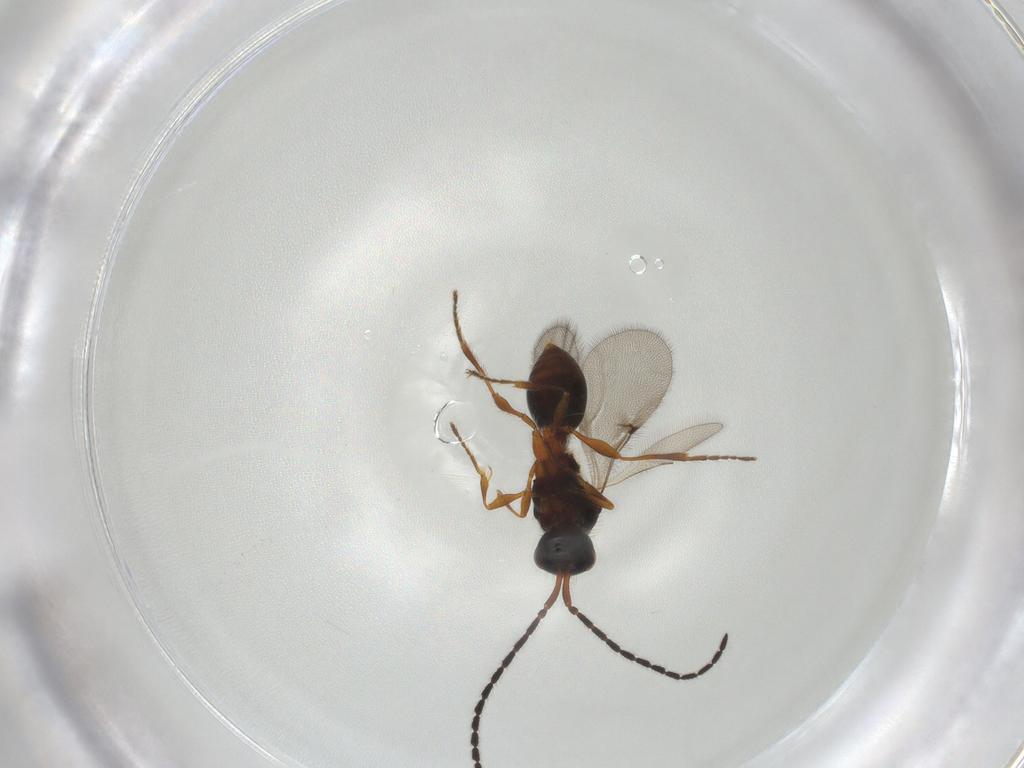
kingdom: Animalia
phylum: Arthropoda
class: Insecta
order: Hymenoptera
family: Diapriidae
